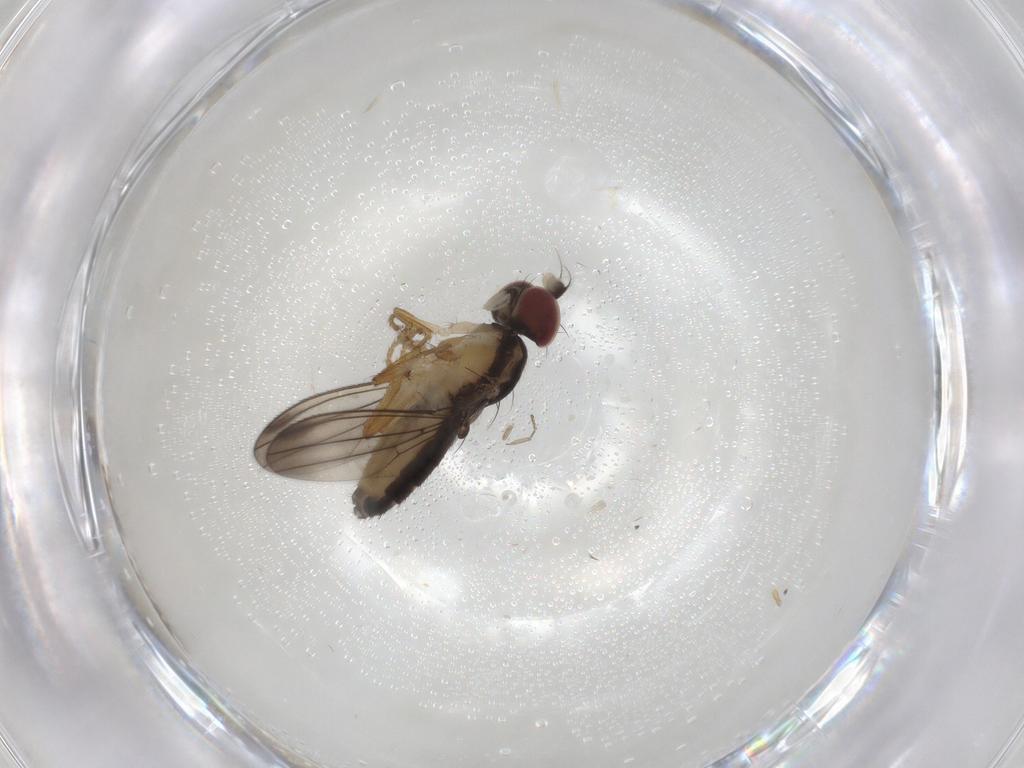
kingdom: Animalia
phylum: Arthropoda
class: Insecta
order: Diptera
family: Anthomyzidae
